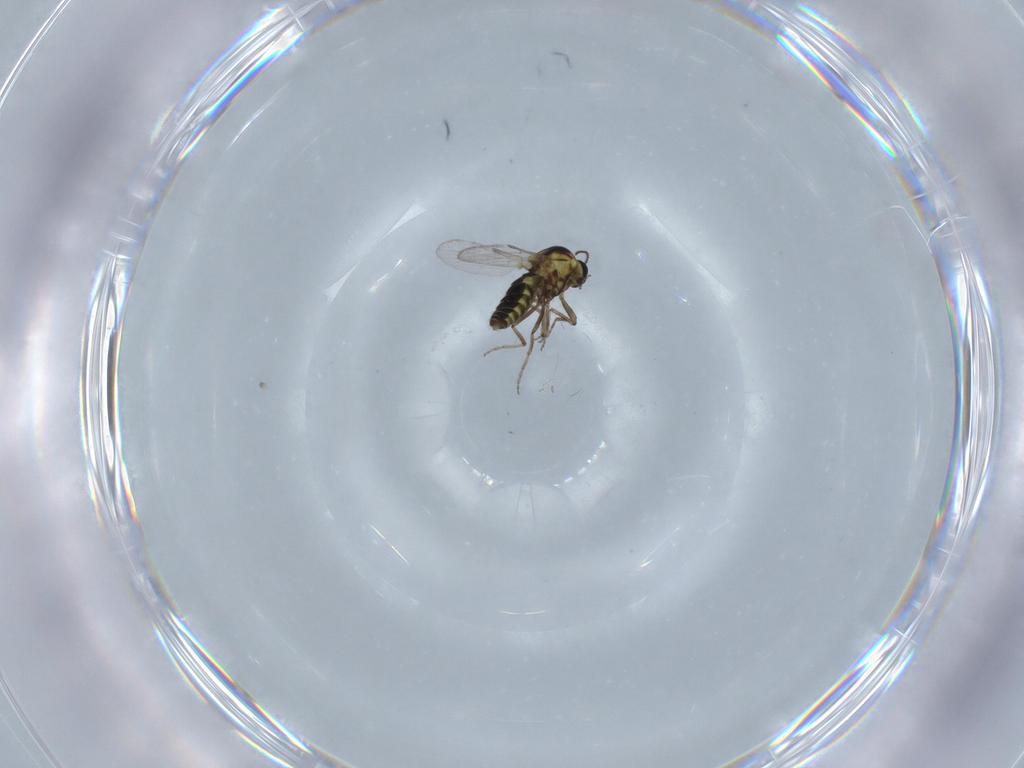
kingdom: Animalia
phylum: Arthropoda
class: Insecta
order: Diptera
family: Ceratopogonidae
